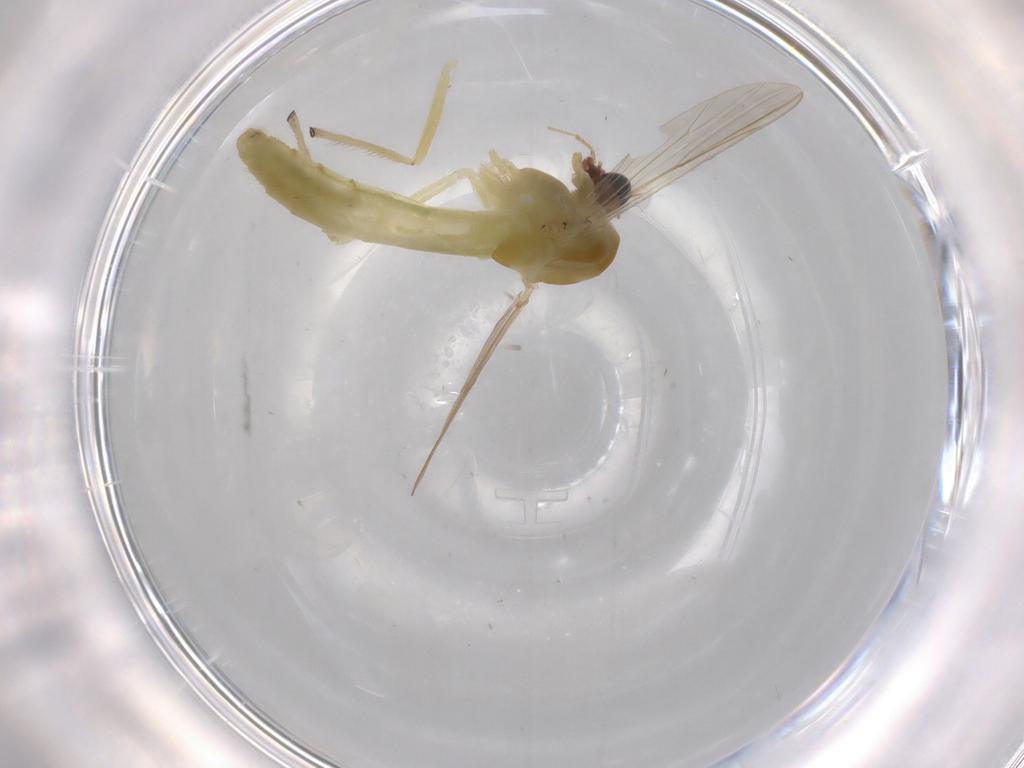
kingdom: Animalia
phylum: Arthropoda
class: Insecta
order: Diptera
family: Chironomidae
